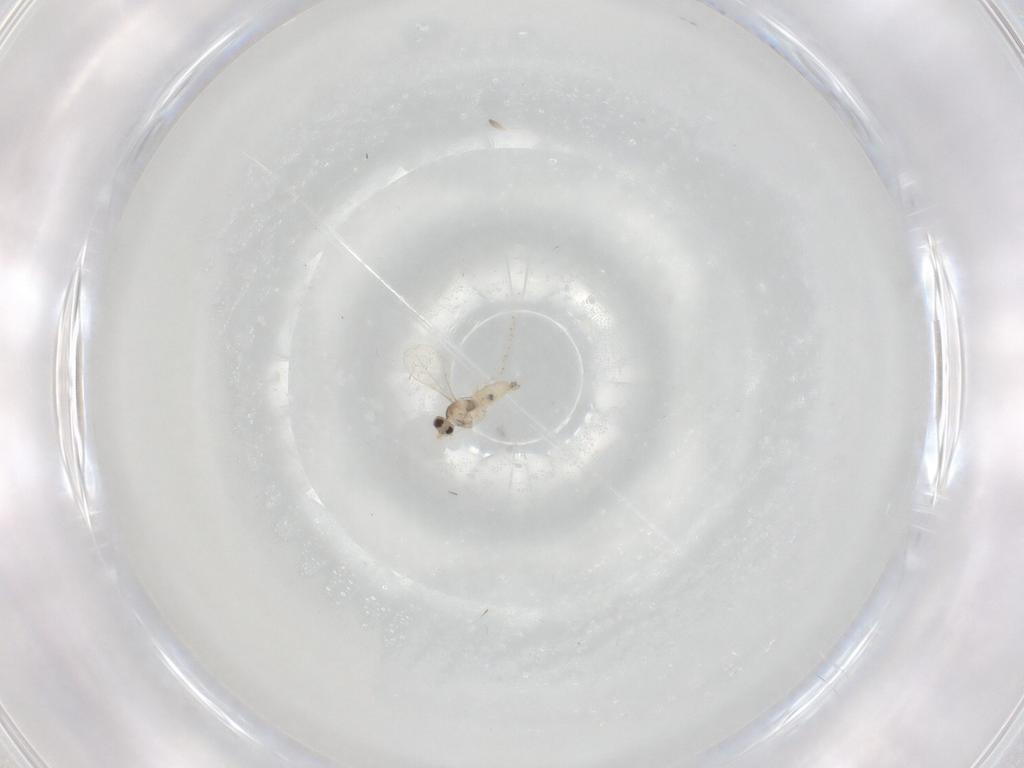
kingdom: Animalia
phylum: Arthropoda
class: Insecta
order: Diptera
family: Cecidomyiidae
